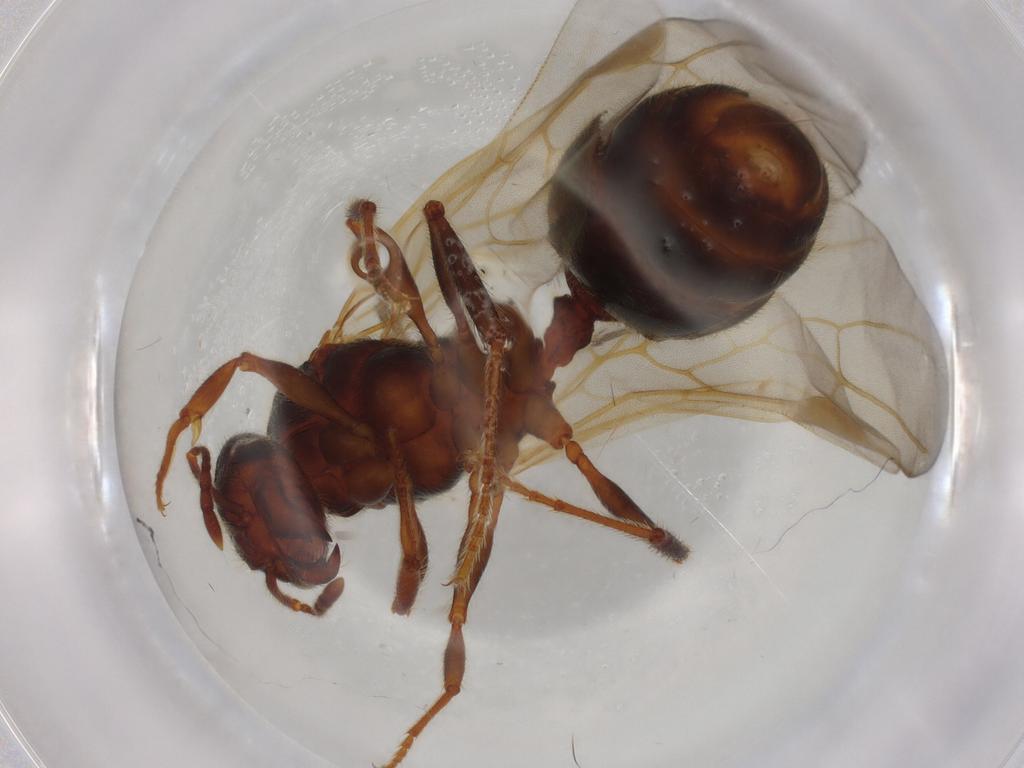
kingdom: Animalia
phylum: Arthropoda
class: Insecta
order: Hymenoptera
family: Formicidae
